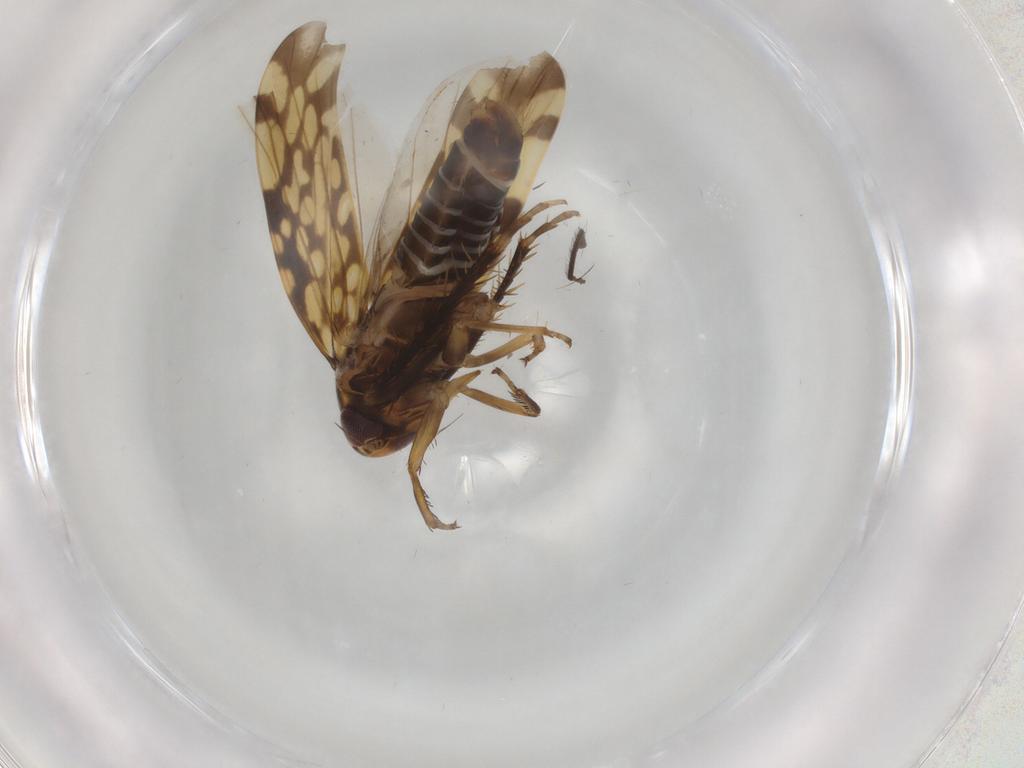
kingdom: Animalia
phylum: Arthropoda
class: Insecta
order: Hemiptera
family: Cicadellidae
